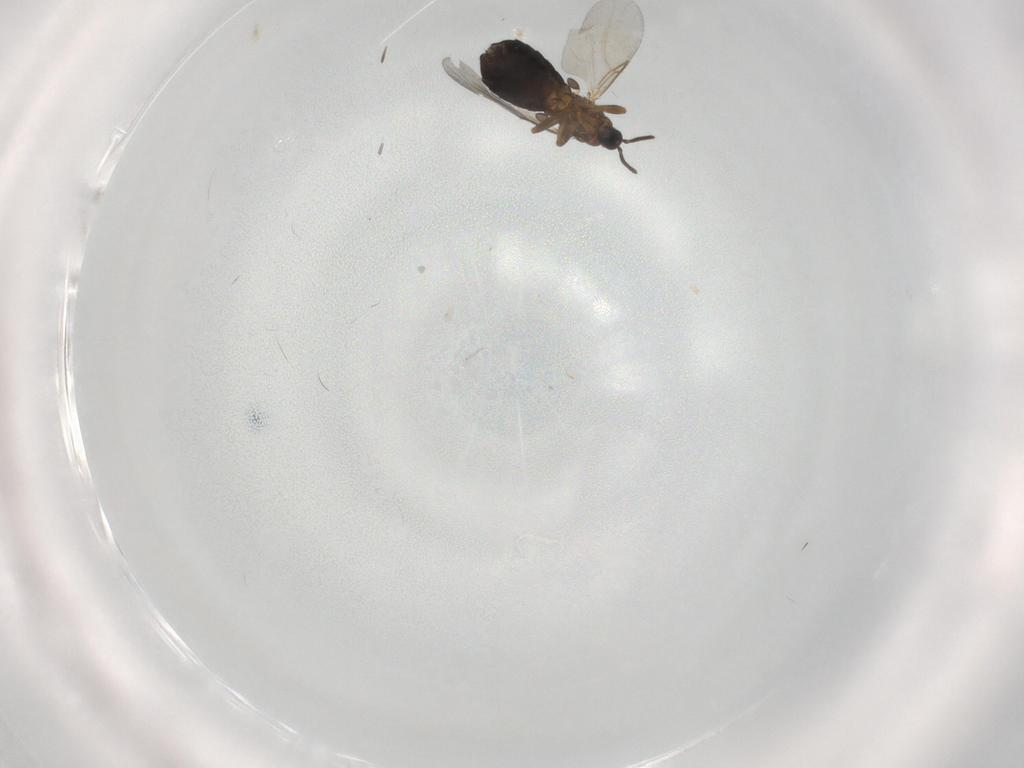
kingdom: Animalia
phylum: Arthropoda
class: Insecta
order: Diptera
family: Scatopsidae
